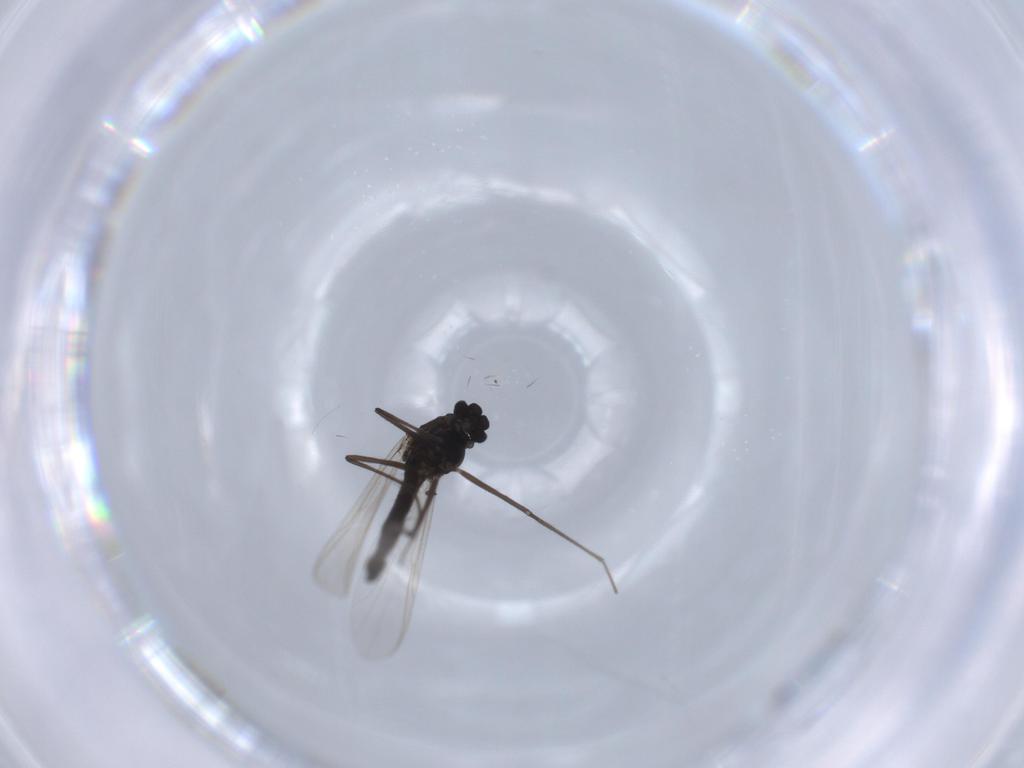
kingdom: Animalia
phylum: Arthropoda
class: Insecta
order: Diptera
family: Chironomidae
